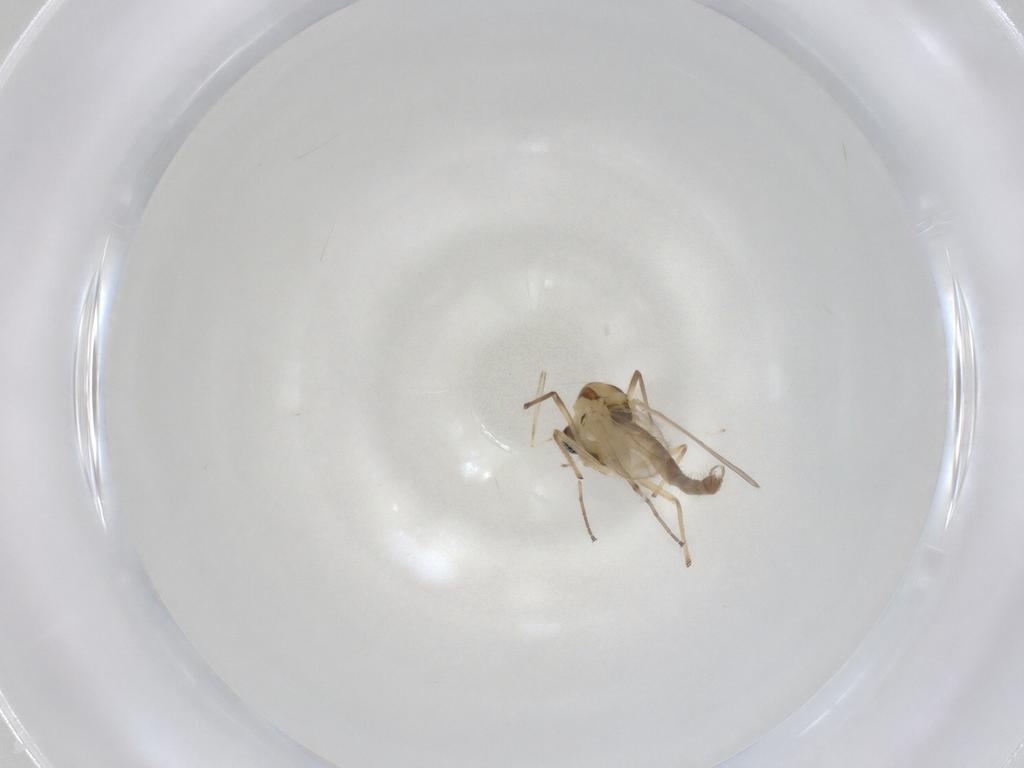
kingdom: Animalia
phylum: Arthropoda
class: Insecta
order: Diptera
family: Chironomidae
